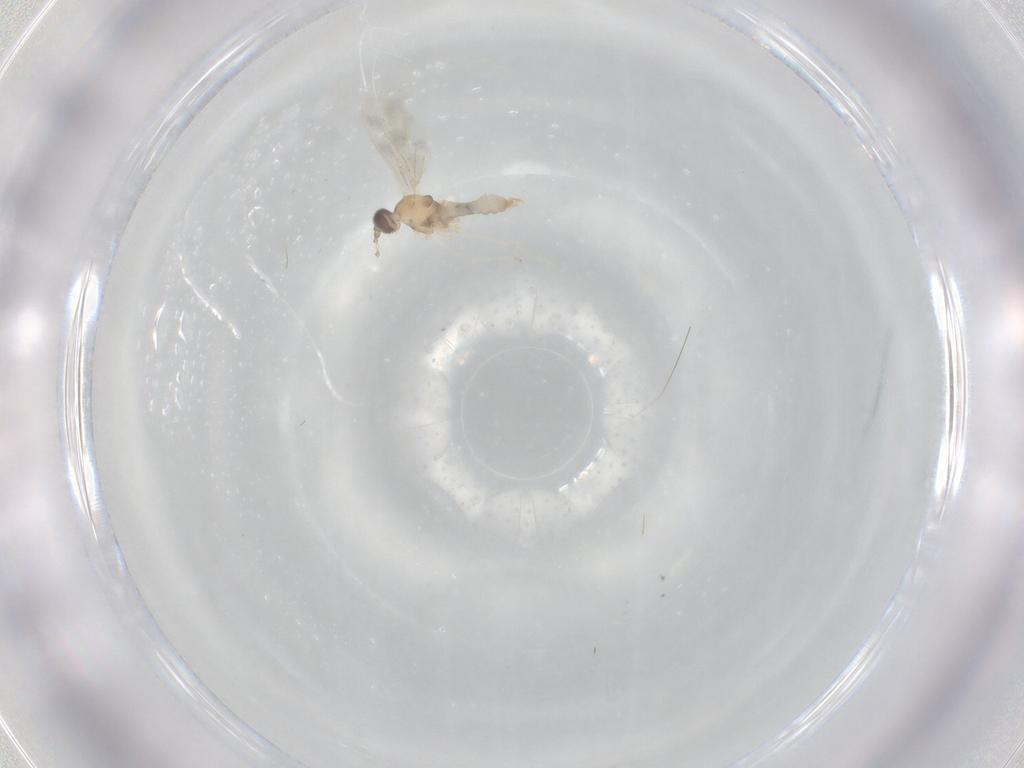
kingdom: Animalia
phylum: Arthropoda
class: Insecta
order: Diptera
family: Cecidomyiidae
